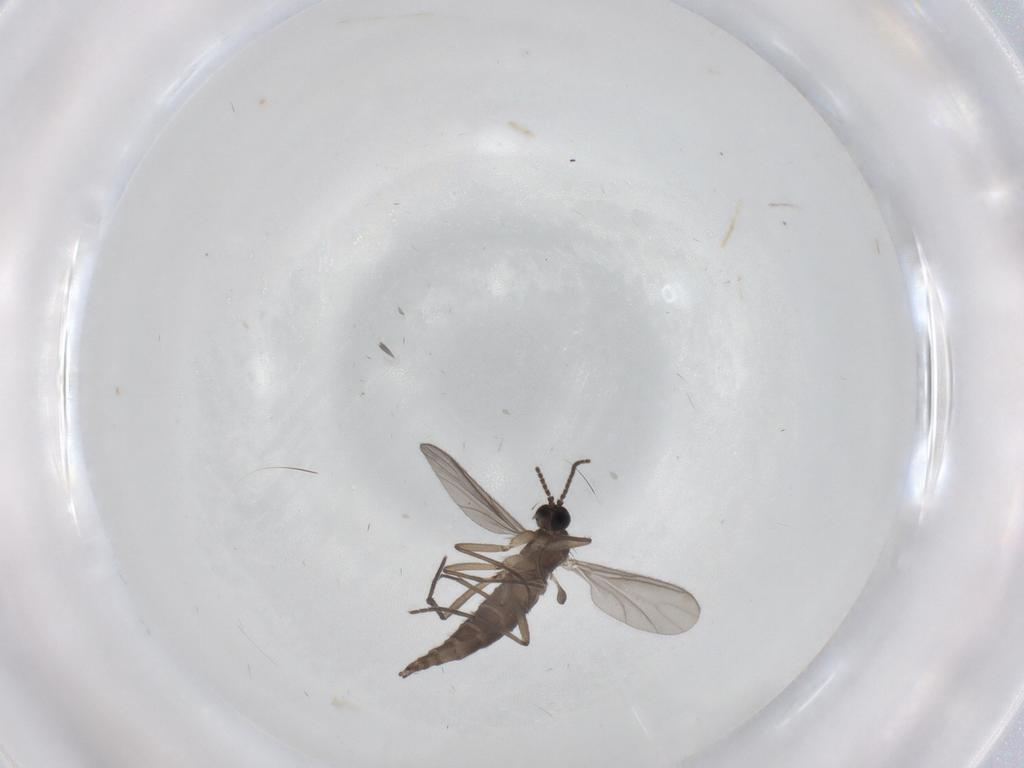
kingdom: Animalia
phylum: Arthropoda
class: Insecta
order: Diptera
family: Sciaridae
